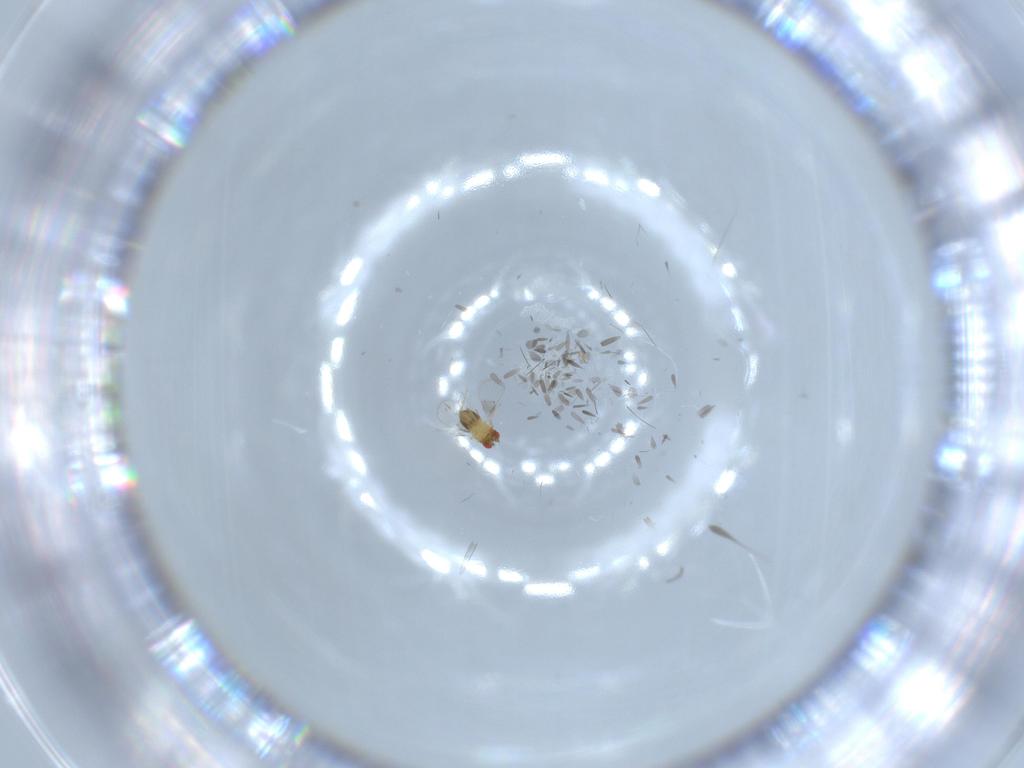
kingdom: Animalia
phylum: Arthropoda
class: Insecta
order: Hymenoptera
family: Trichogrammatidae
